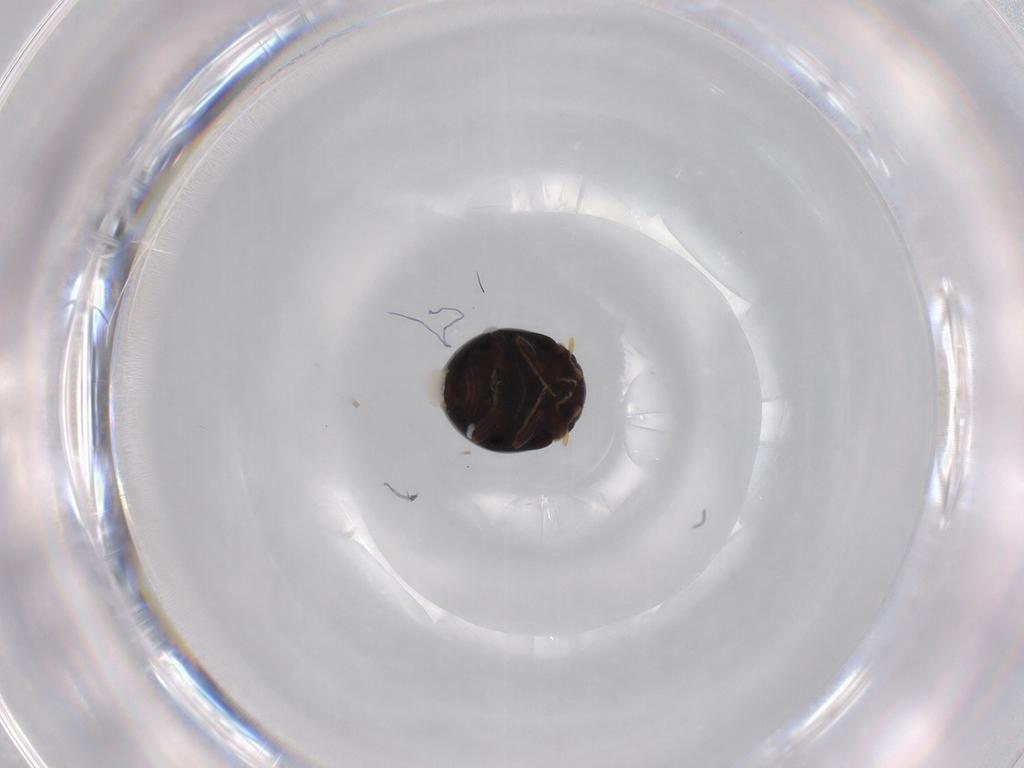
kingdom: Animalia
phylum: Arthropoda
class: Insecta
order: Coleoptera
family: Coccinellidae
